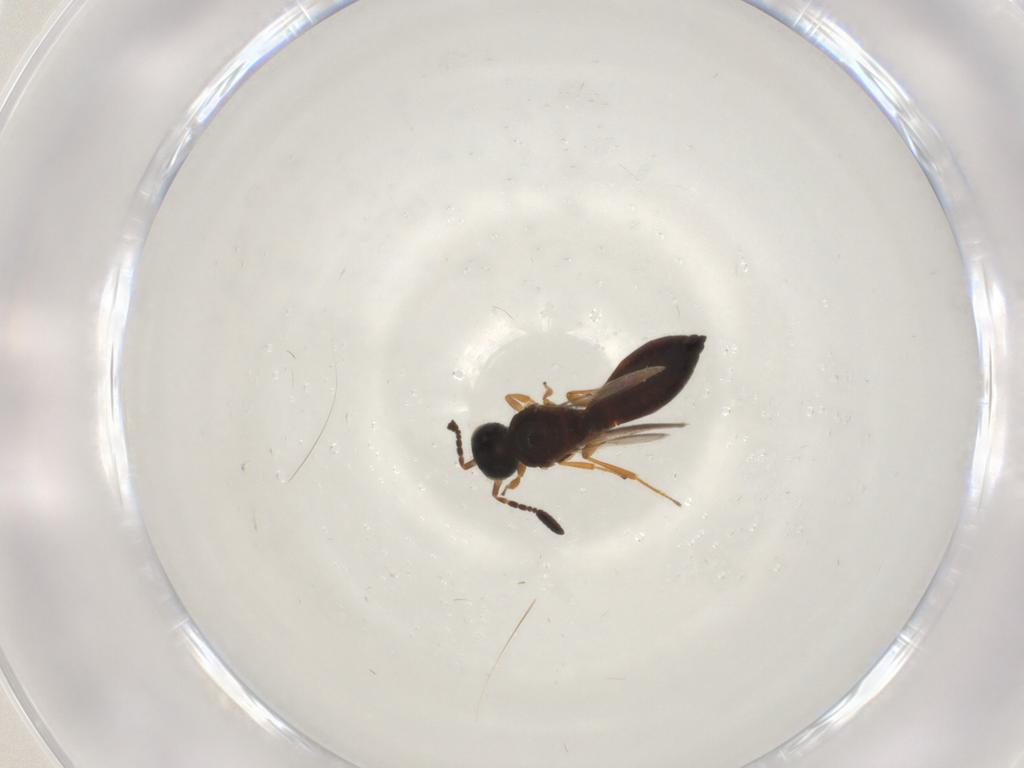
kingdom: Animalia
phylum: Arthropoda
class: Insecta
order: Hymenoptera
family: Scelionidae
